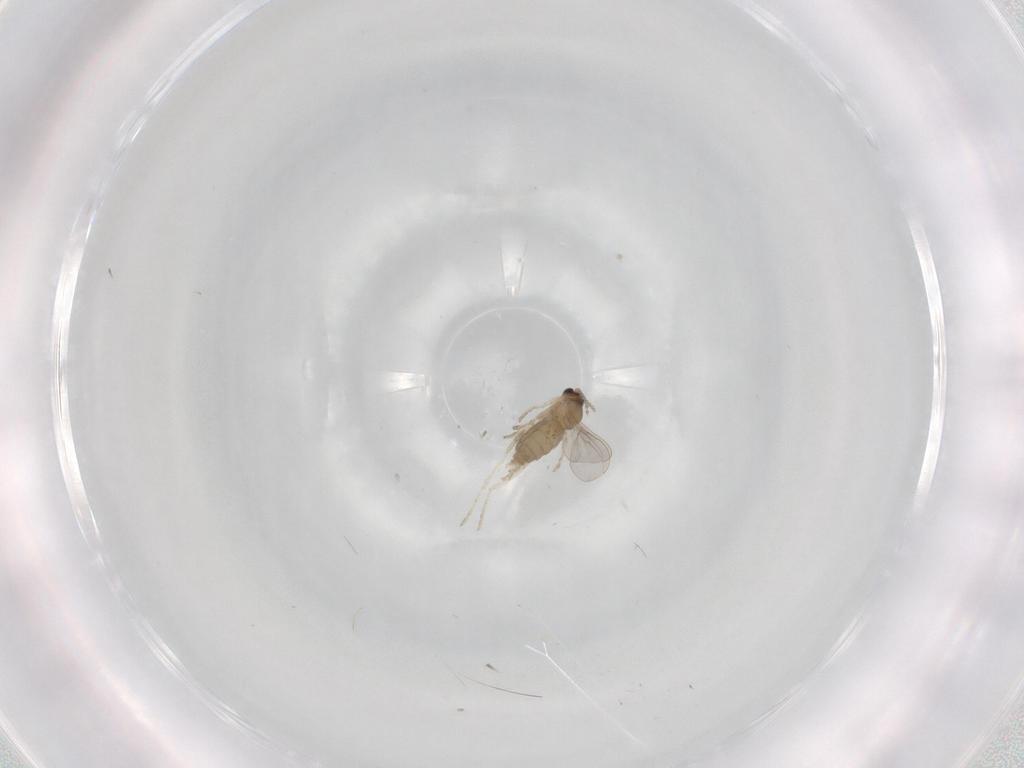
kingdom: Animalia
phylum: Arthropoda
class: Insecta
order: Diptera
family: Cecidomyiidae
